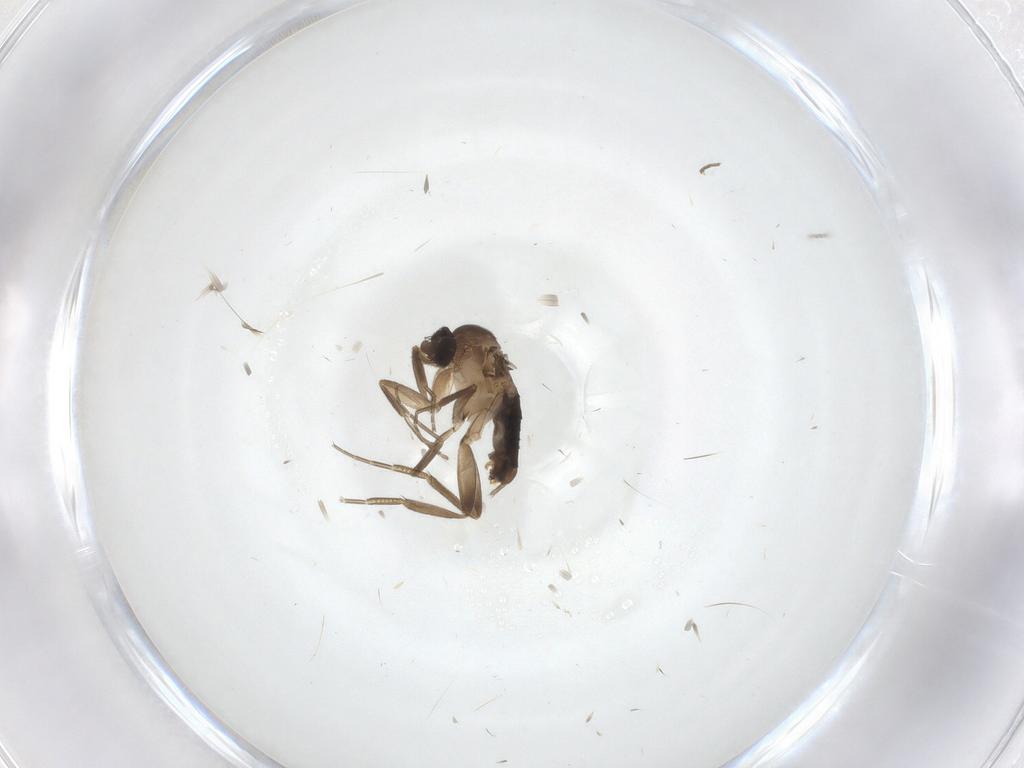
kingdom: Animalia
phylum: Arthropoda
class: Insecta
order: Diptera
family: Phoridae
